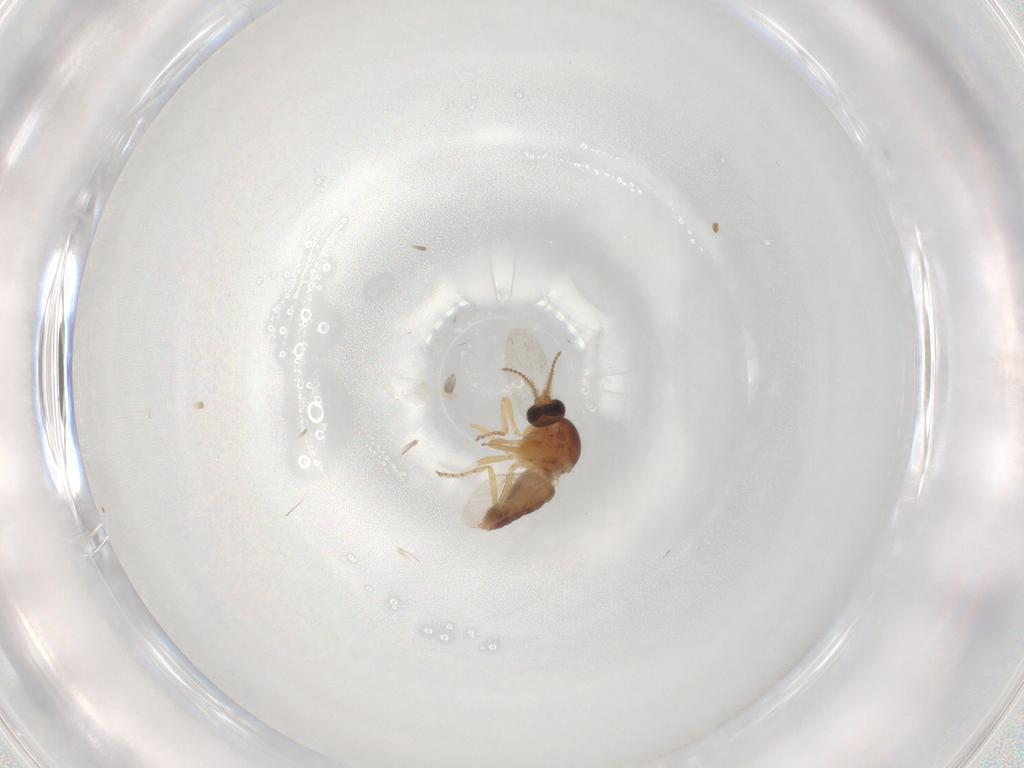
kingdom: Animalia
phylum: Arthropoda
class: Insecta
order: Diptera
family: Ceratopogonidae
